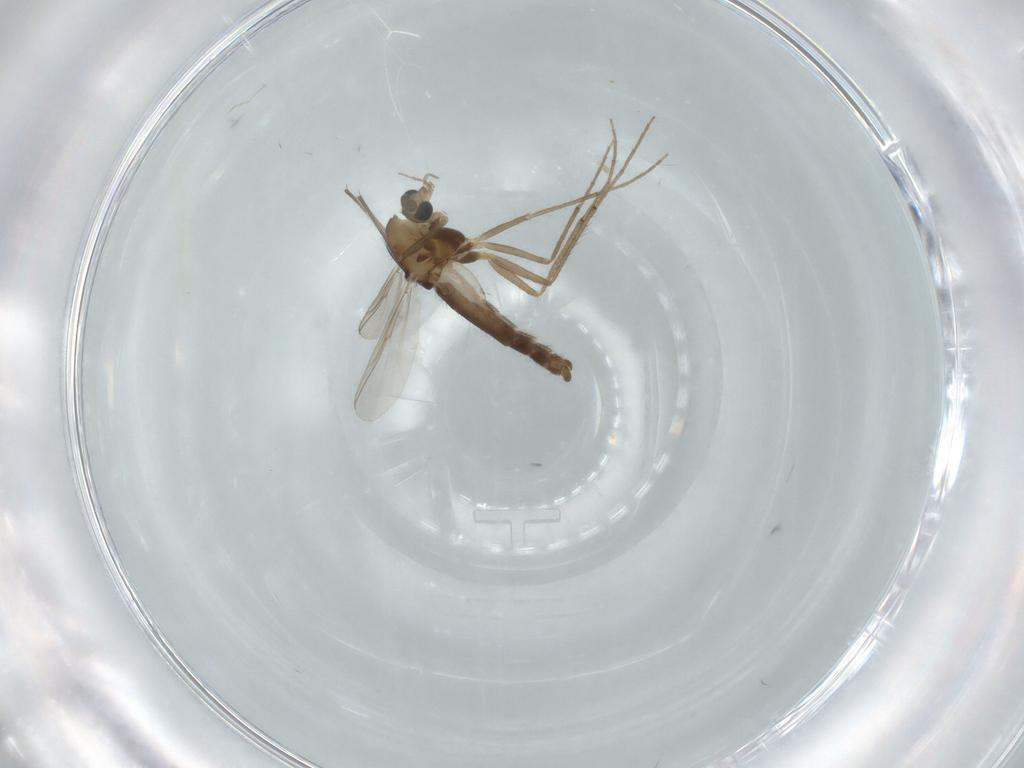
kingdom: Animalia
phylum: Arthropoda
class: Insecta
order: Diptera
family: Chironomidae
